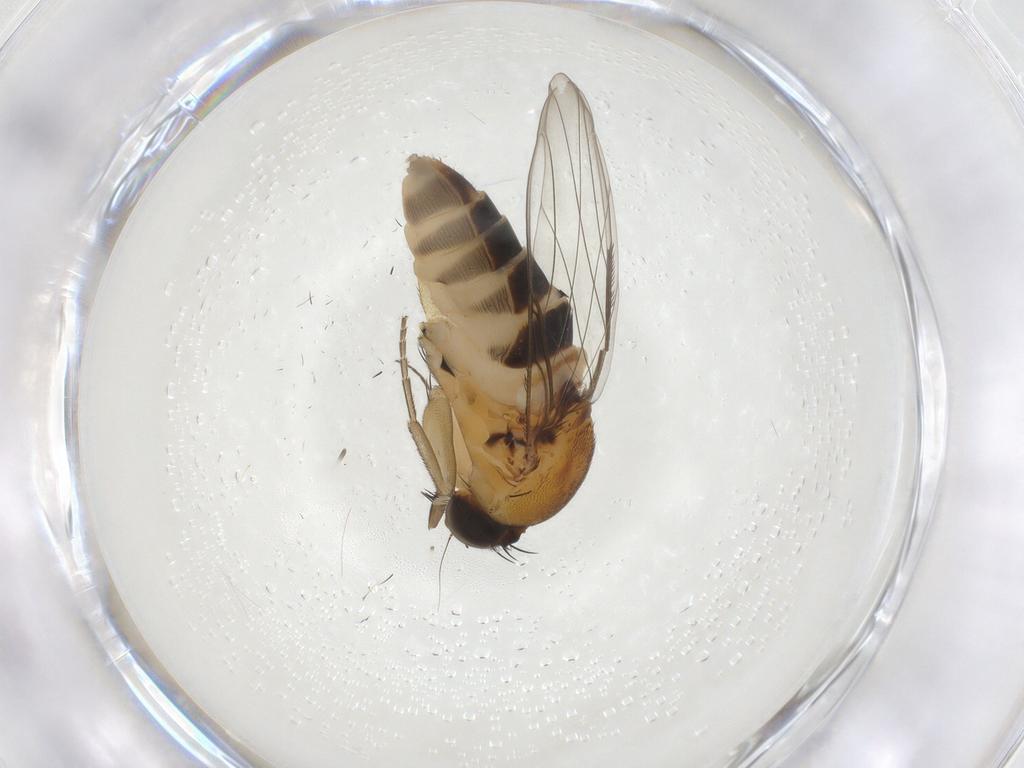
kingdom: Animalia
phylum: Arthropoda
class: Insecta
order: Diptera
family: Phoridae
